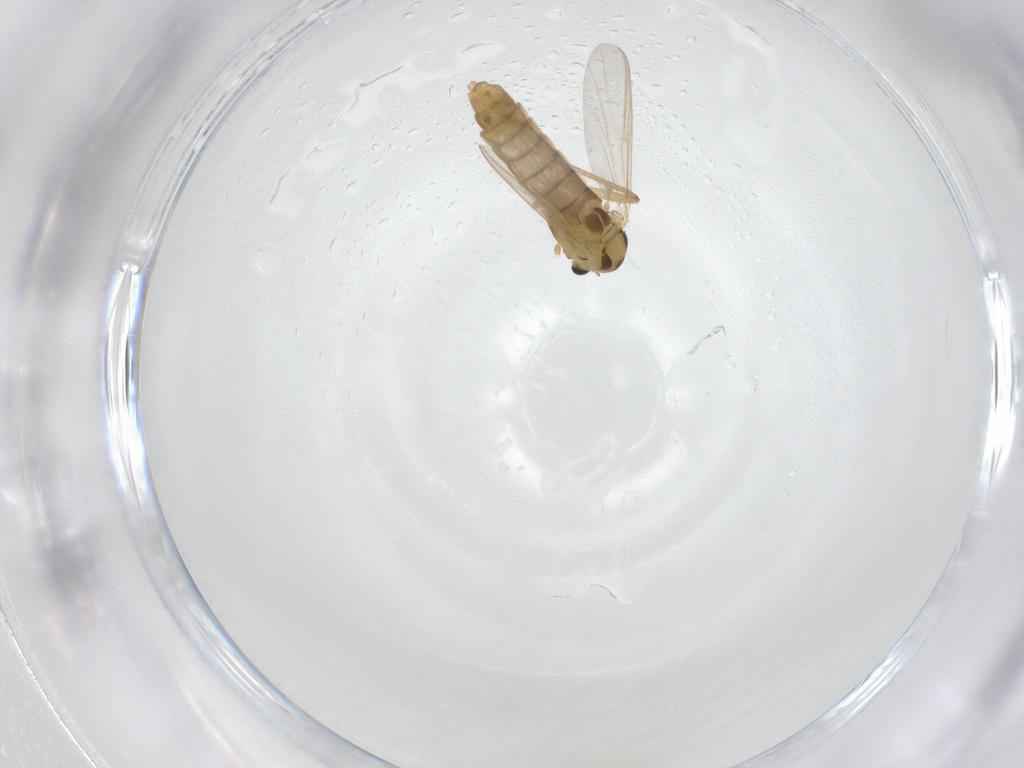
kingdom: Animalia
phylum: Arthropoda
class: Insecta
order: Diptera
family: Chironomidae
